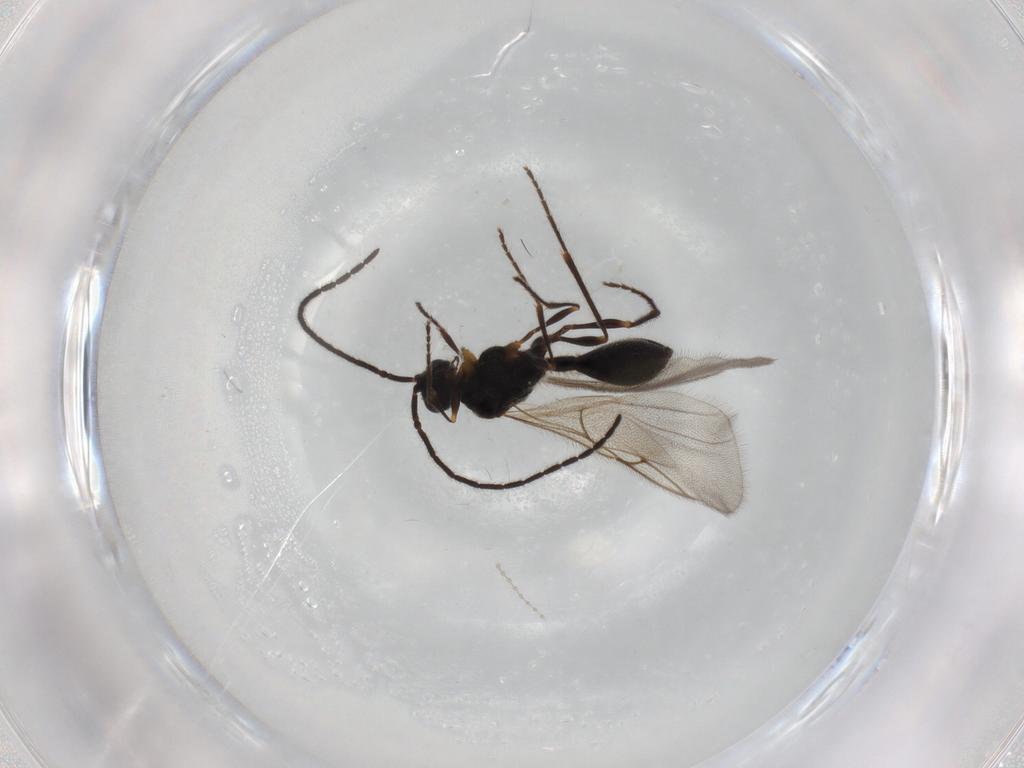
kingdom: Animalia
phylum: Arthropoda
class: Insecta
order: Hymenoptera
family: Diapriidae
